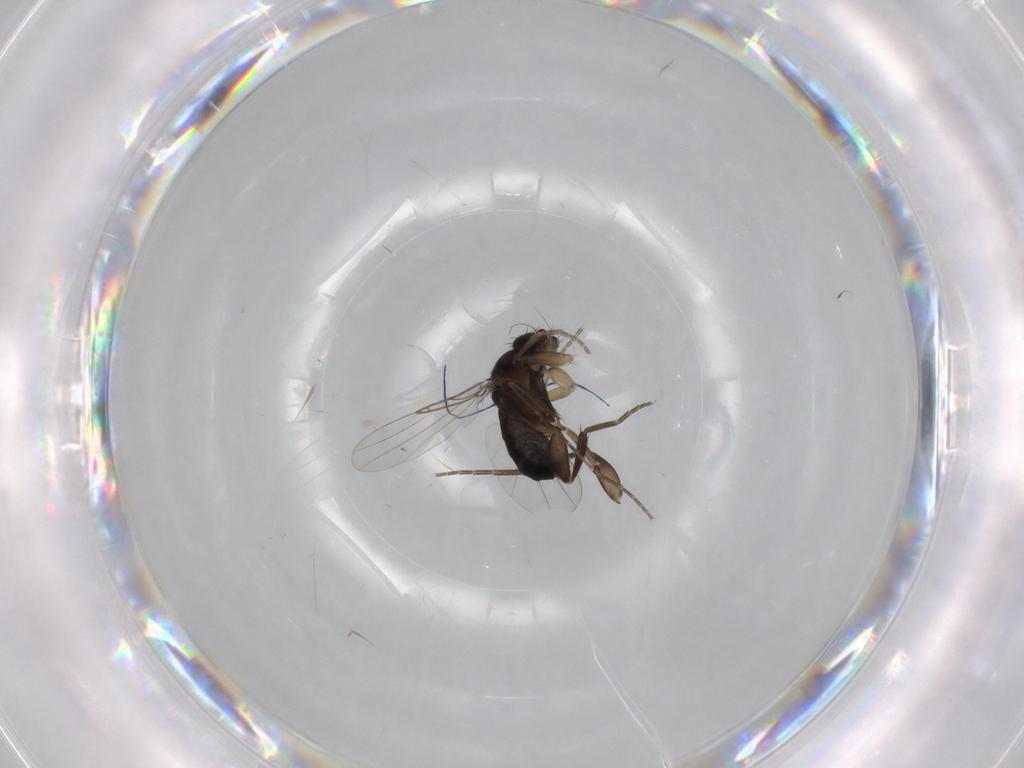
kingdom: Animalia
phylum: Arthropoda
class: Insecta
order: Diptera
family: Phoridae
